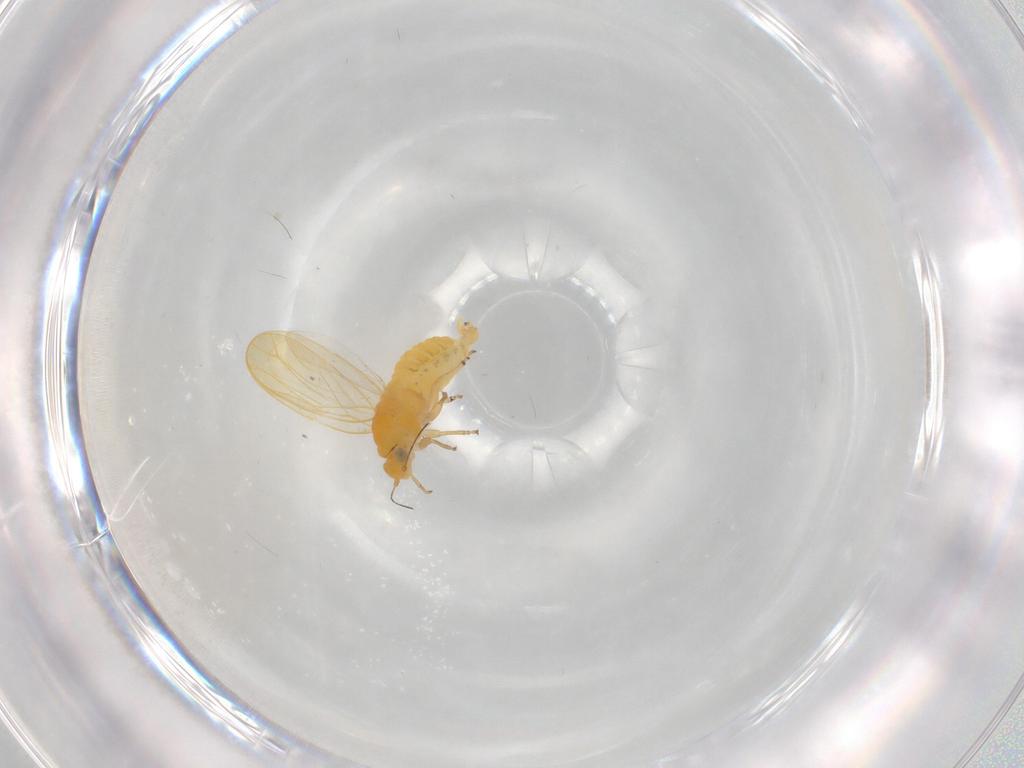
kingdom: Animalia
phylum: Arthropoda
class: Insecta
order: Hemiptera
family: Psyllidae
